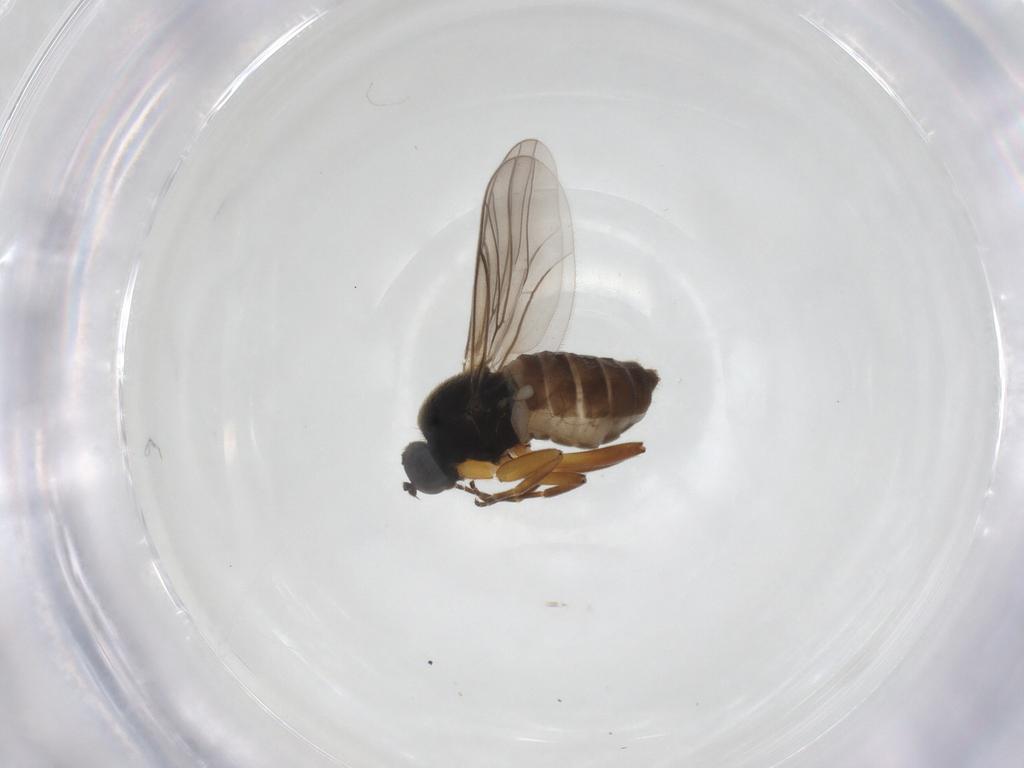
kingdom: Animalia
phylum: Arthropoda
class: Insecta
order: Diptera
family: Hybotidae
